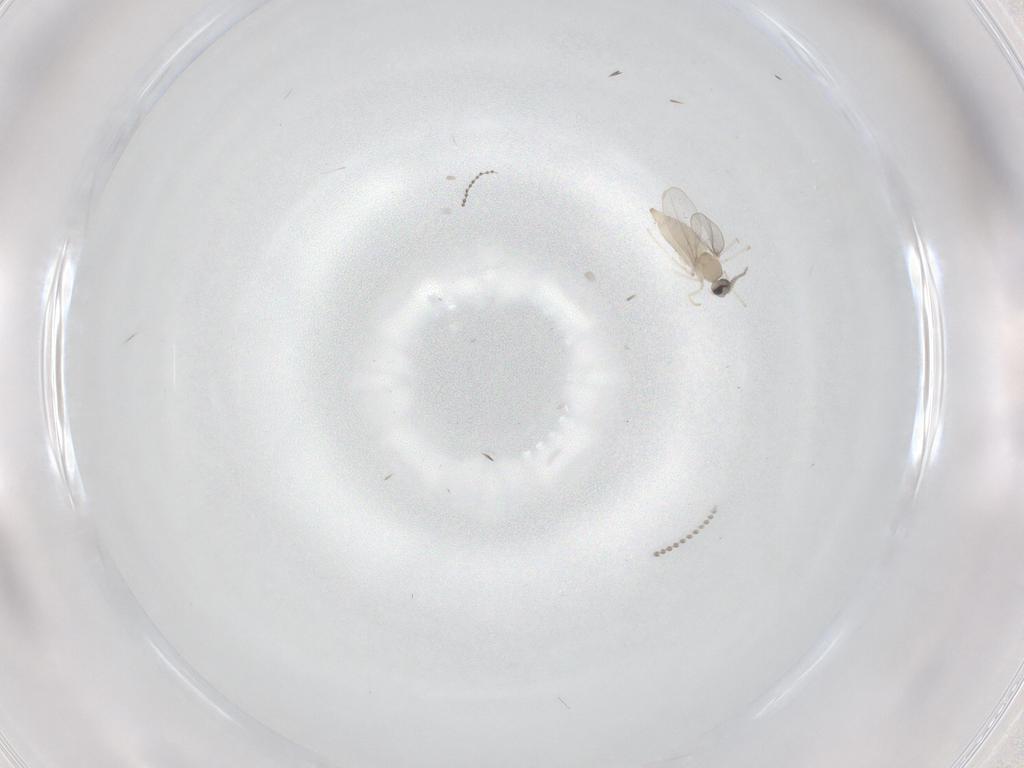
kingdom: Animalia
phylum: Arthropoda
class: Insecta
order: Diptera
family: Cecidomyiidae
